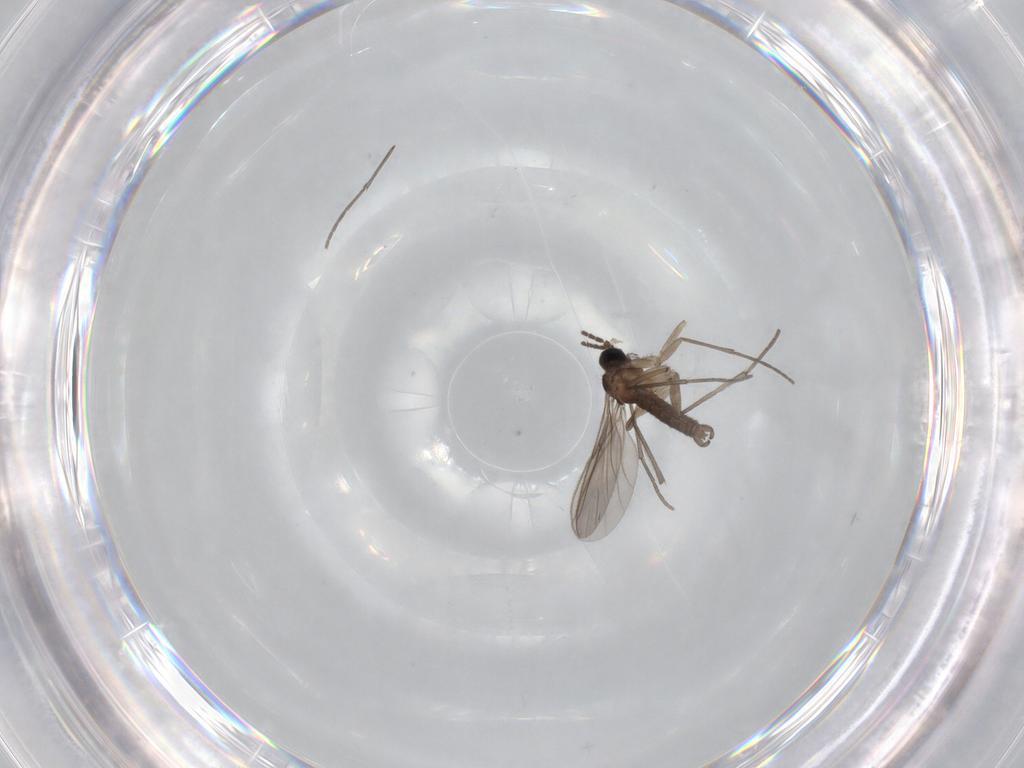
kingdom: Animalia
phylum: Arthropoda
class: Insecta
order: Diptera
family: Sciaridae
